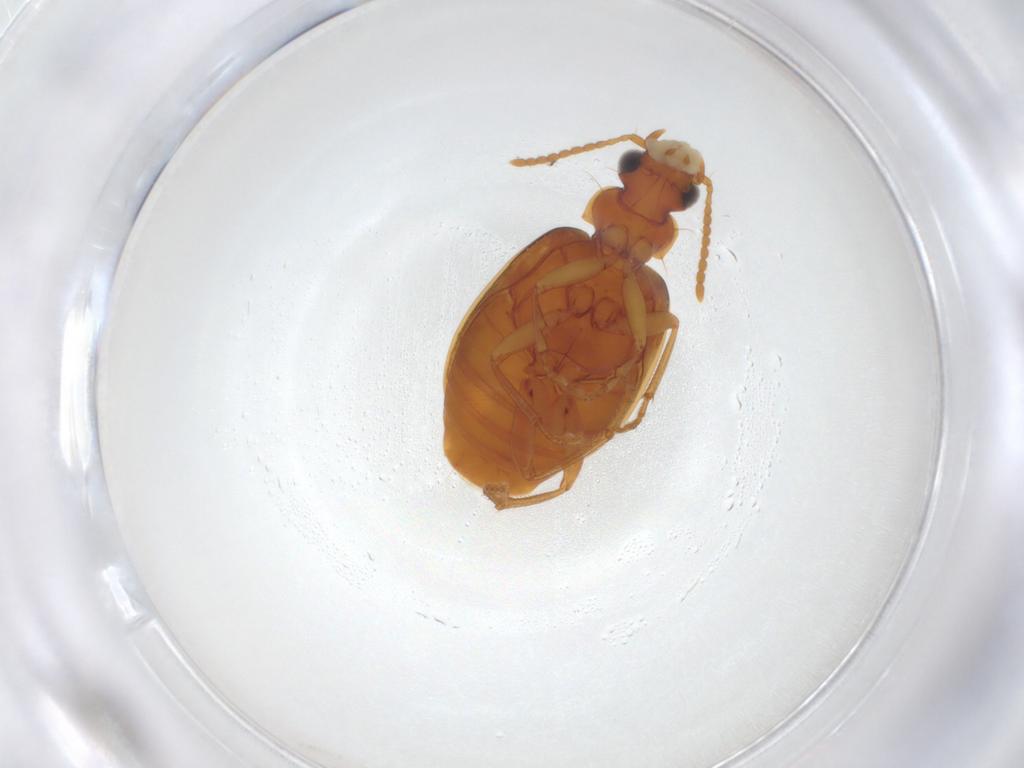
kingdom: Animalia
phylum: Arthropoda
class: Insecta
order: Coleoptera
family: Carabidae
